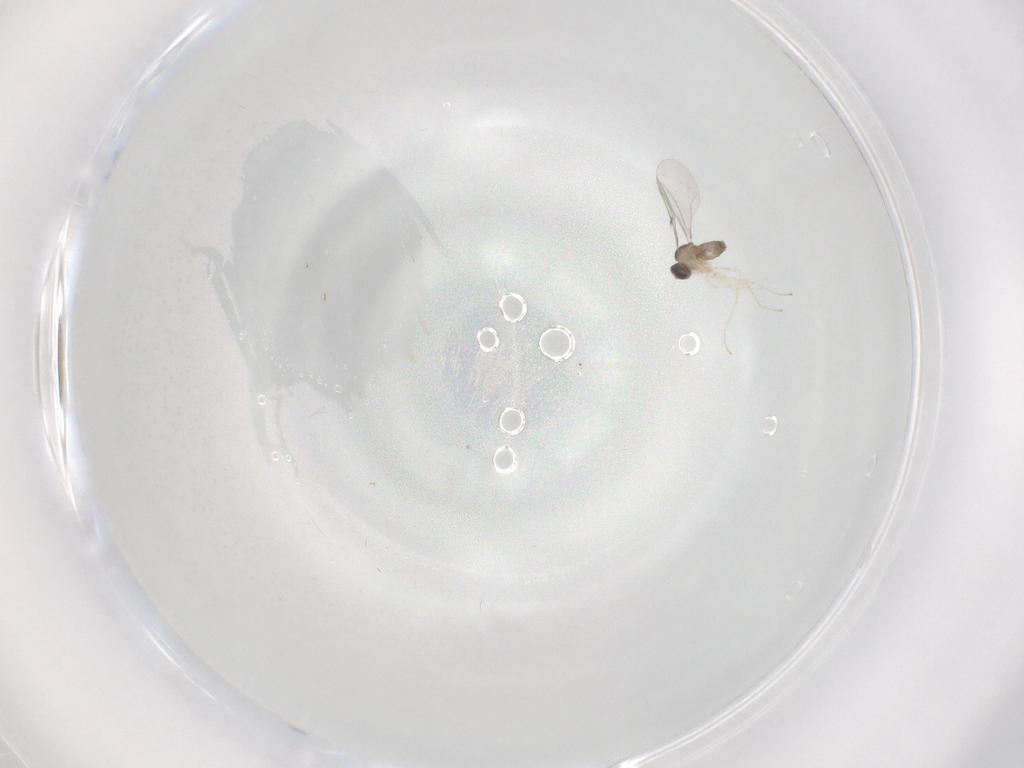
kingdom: Animalia
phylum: Arthropoda
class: Insecta
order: Diptera
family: Cecidomyiidae
